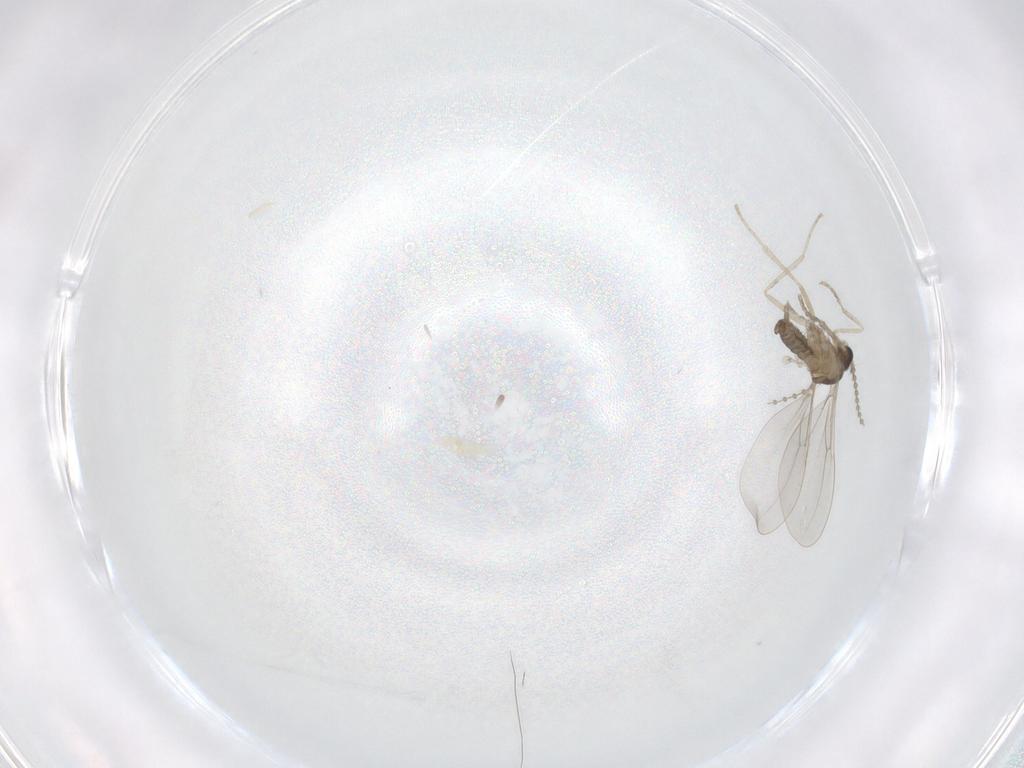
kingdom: Animalia
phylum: Arthropoda
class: Insecta
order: Diptera
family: Cecidomyiidae
